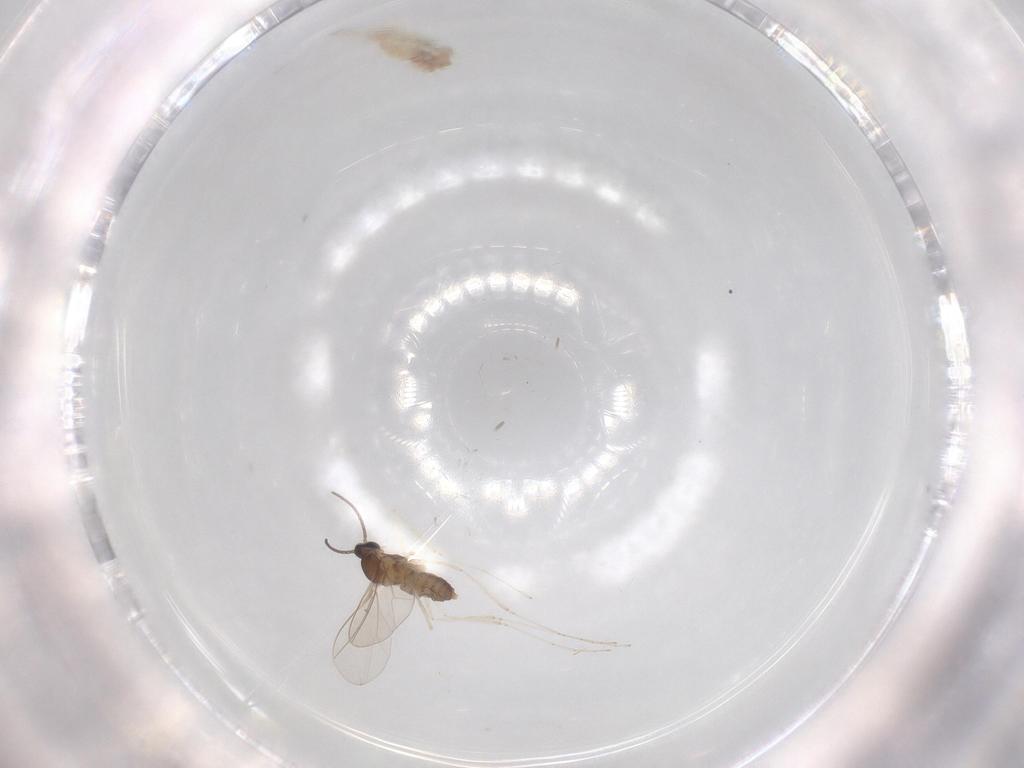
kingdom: Animalia
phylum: Arthropoda
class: Insecta
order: Diptera
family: Cecidomyiidae
